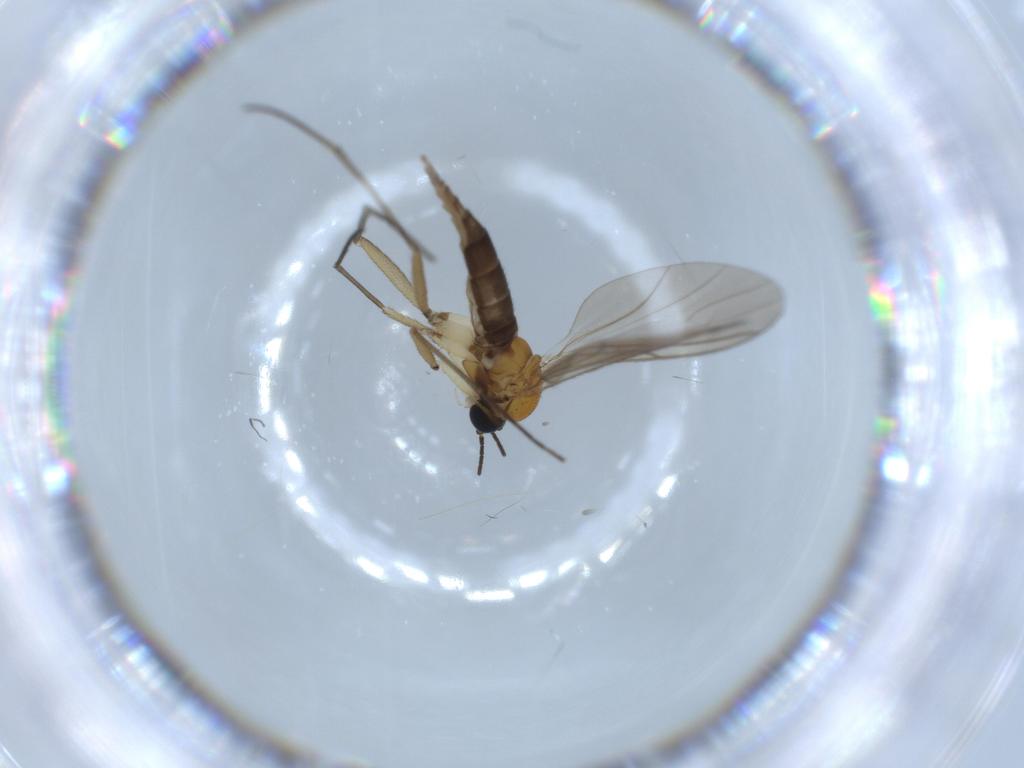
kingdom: Animalia
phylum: Arthropoda
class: Insecta
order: Diptera
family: Sciaridae
